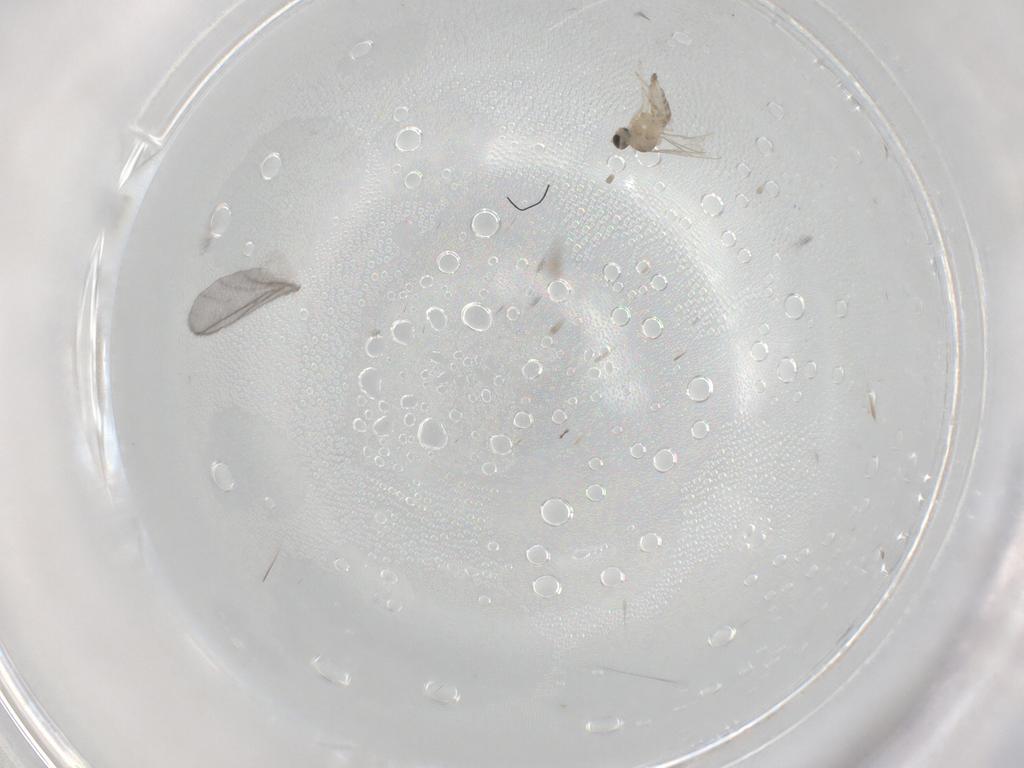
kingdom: Animalia
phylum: Arthropoda
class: Insecta
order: Diptera
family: Cecidomyiidae
